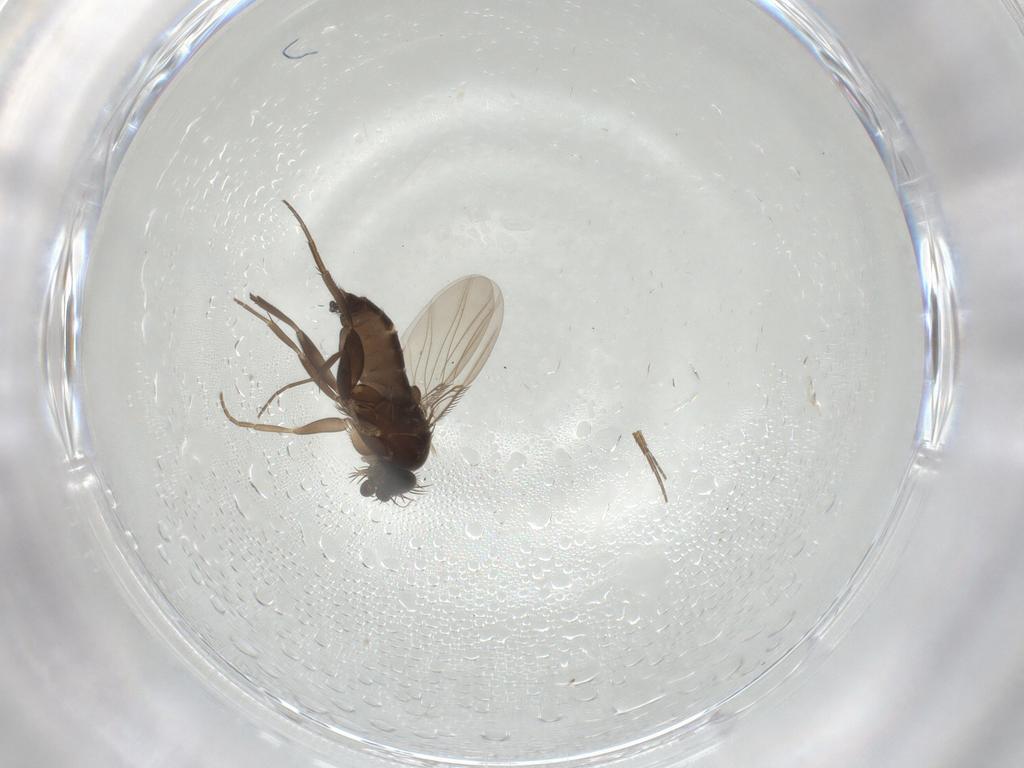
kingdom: Animalia
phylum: Arthropoda
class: Insecta
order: Diptera
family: Phoridae
